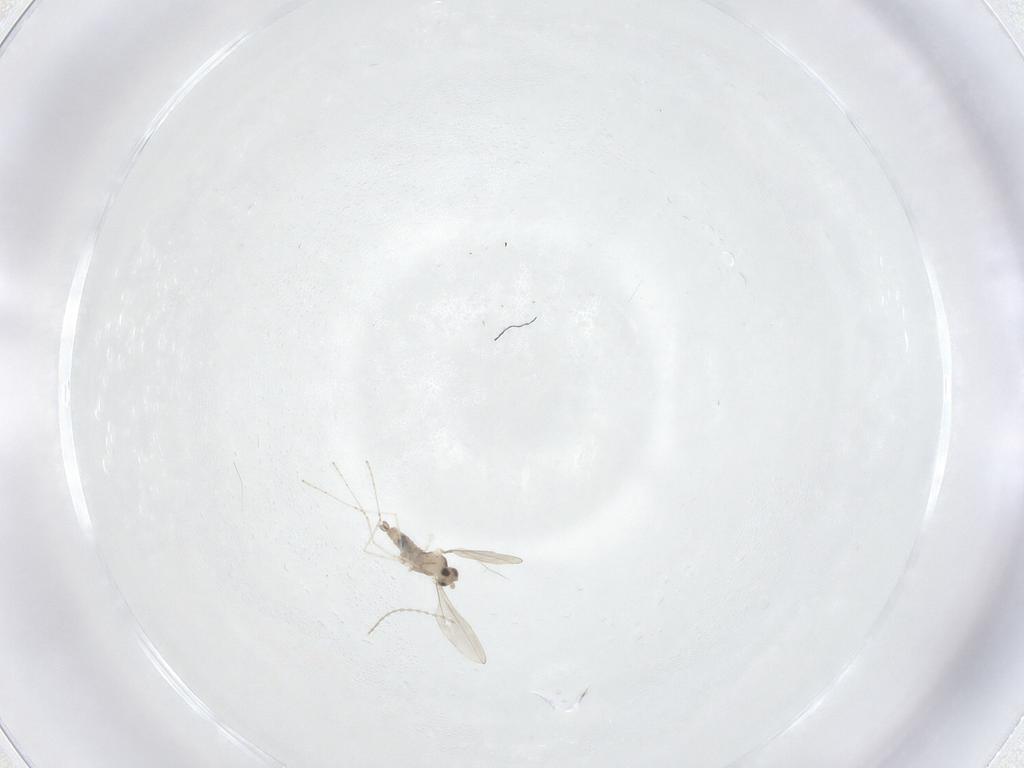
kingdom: Animalia
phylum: Arthropoda
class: Insecta
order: Diptera
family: Cecidomyiidae
